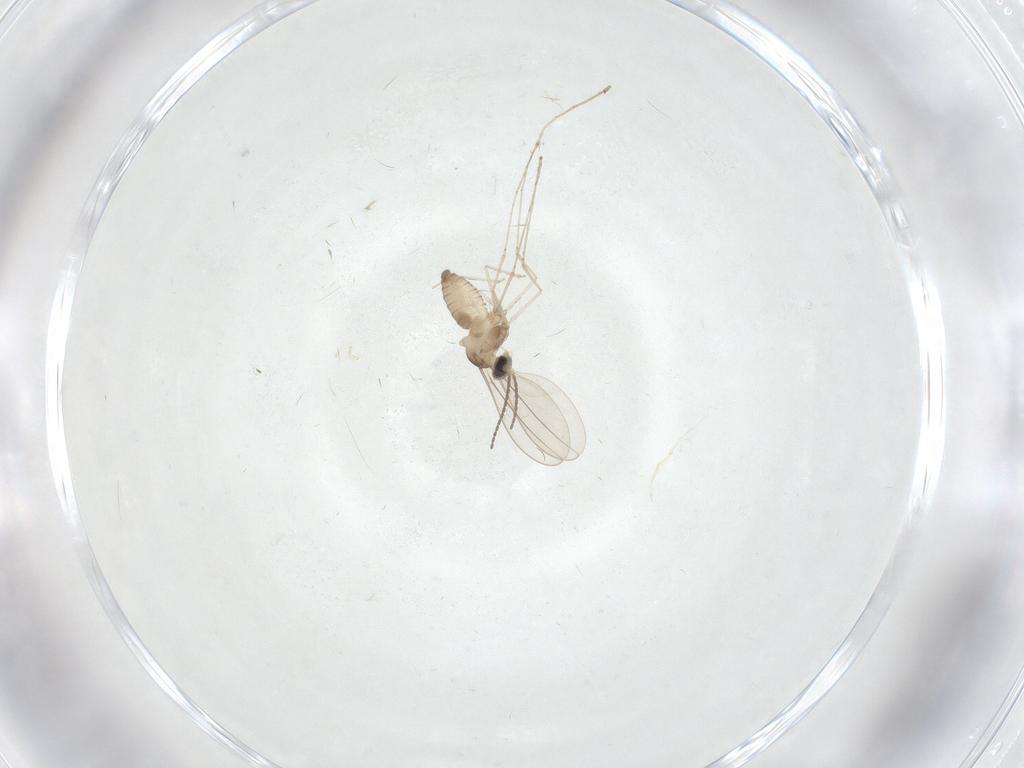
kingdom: Animalia
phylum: Arthropoda
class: Insecta
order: Diptera
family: Cecidomyiidae
